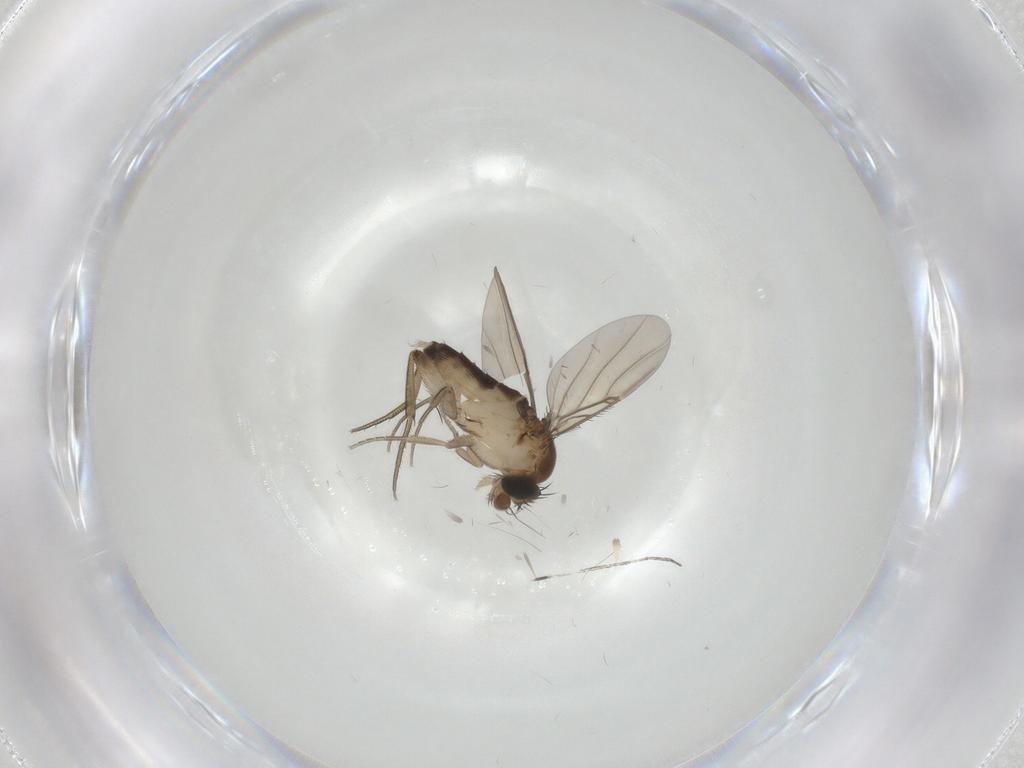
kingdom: Animalia
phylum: Arthropoda
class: Insecta
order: Diptera
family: Phoridae
